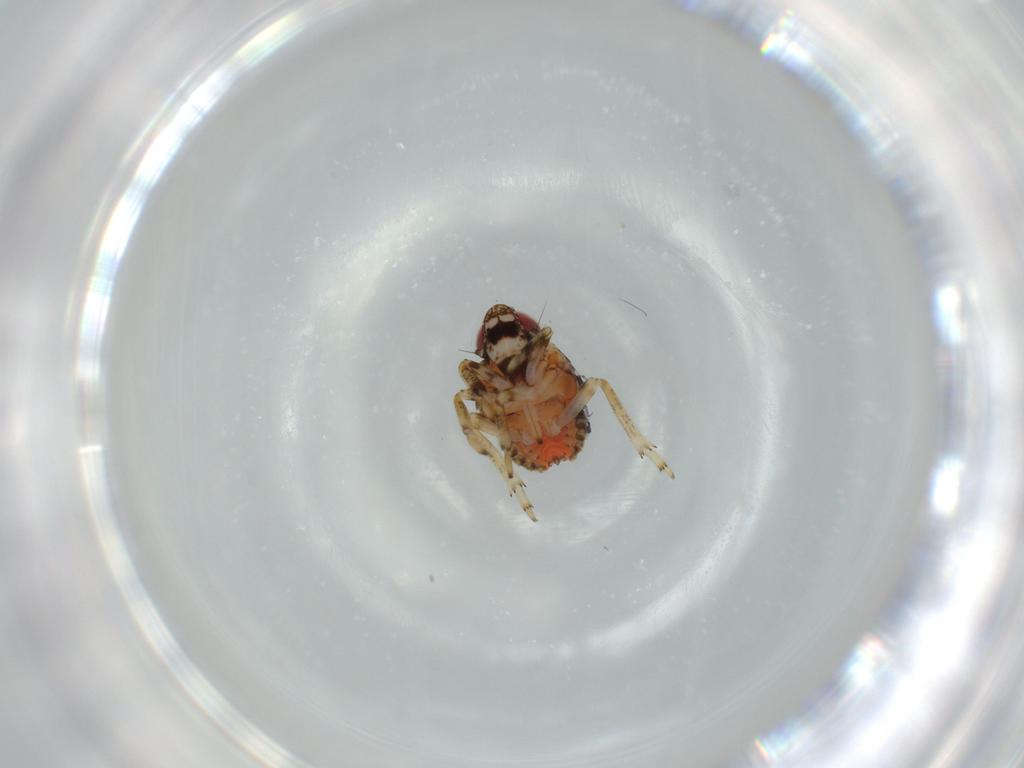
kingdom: Animalia
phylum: Arthropoda
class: Insecta
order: Hemiptera
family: Issidae
